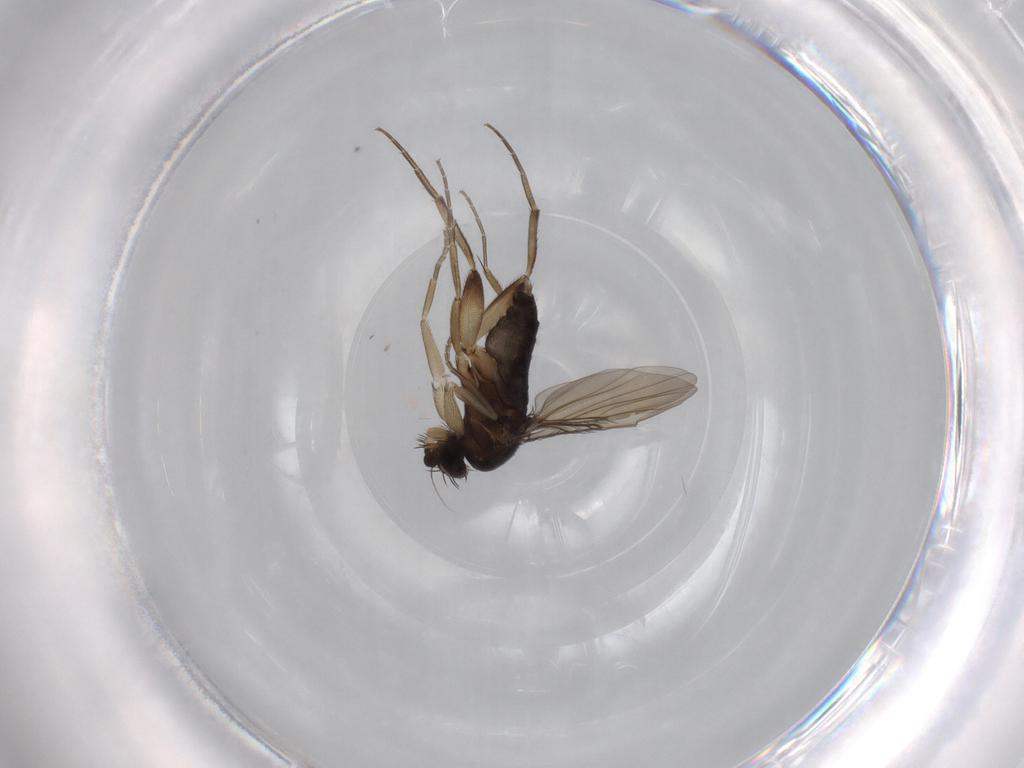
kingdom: Animalia
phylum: Arthropoda
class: Insecta
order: Diptera
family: Phoridae
